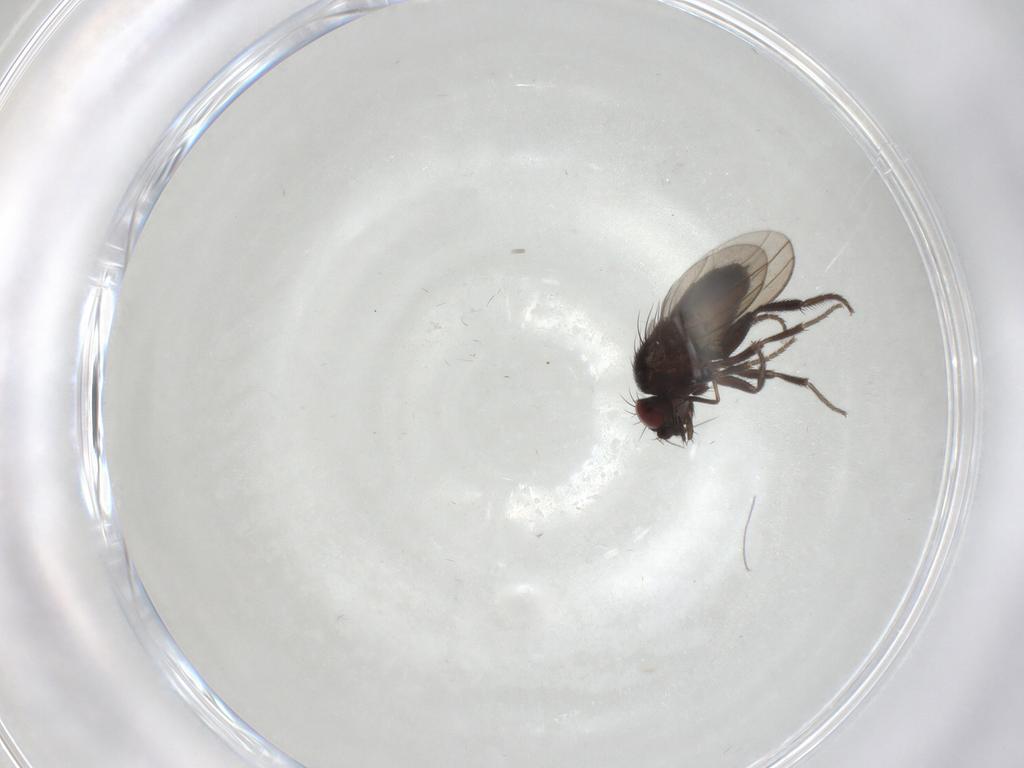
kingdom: Animalia
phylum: Arthropoda
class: Insecta
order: Diptera
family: Milichiidae
